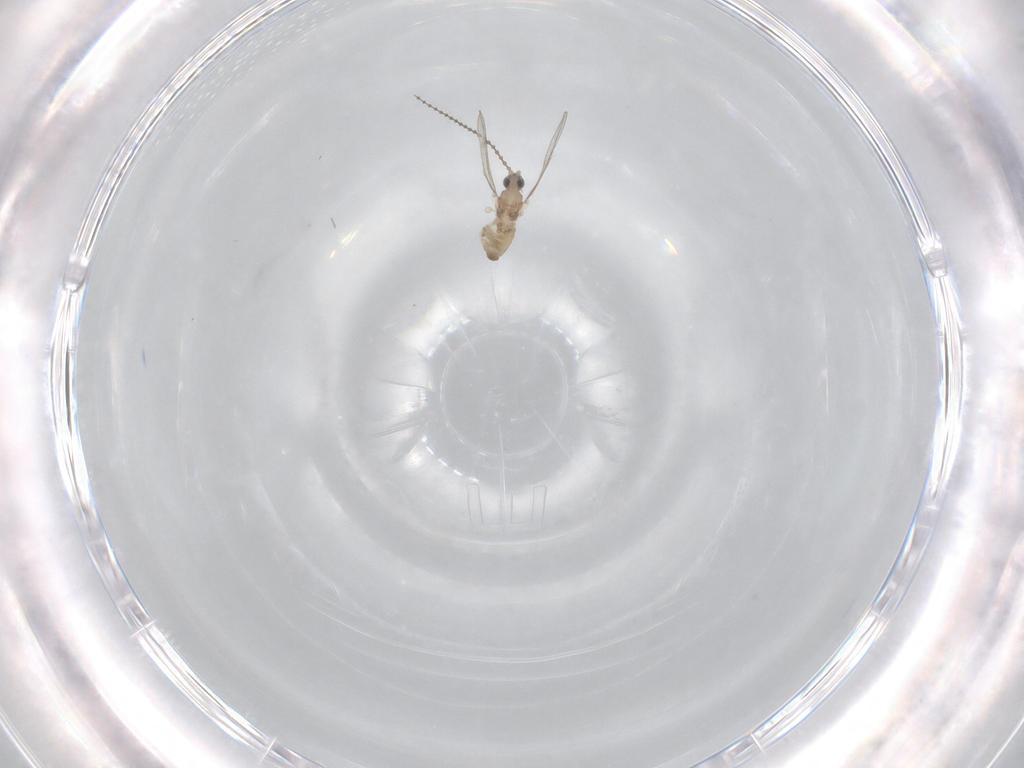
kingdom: Animalia
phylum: Arthropoda
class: Insecta
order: Diptera
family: Cecidomyiidae
